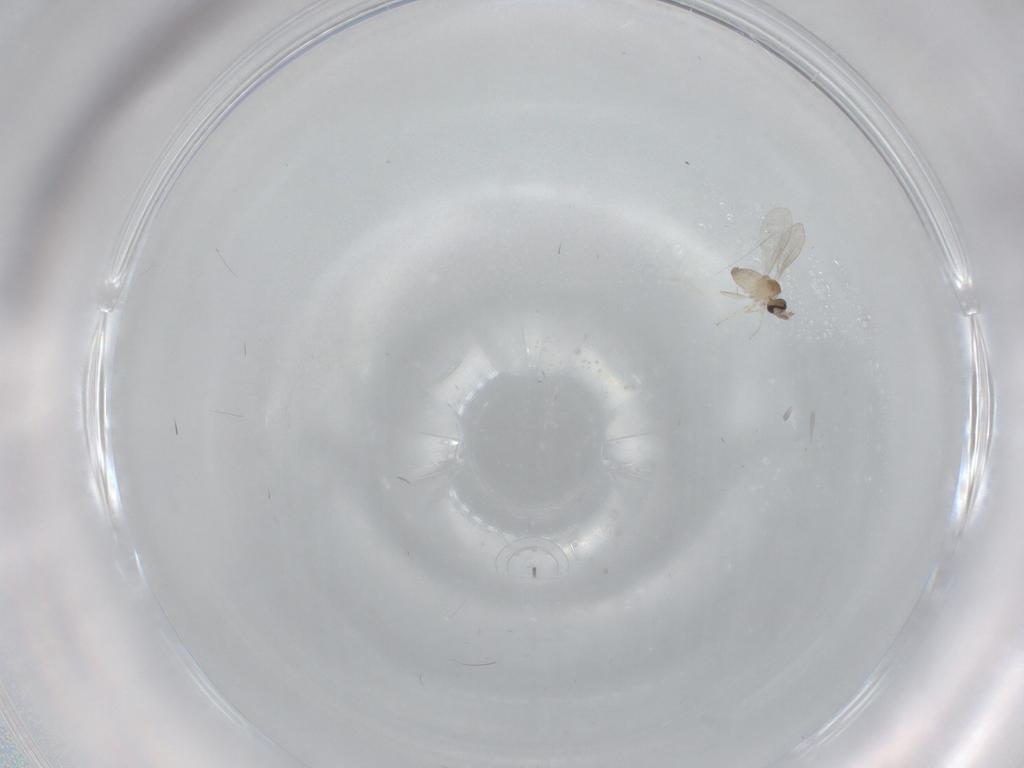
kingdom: Animalia
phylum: Arthropoda
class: Insecta
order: Diptera
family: Cecidomyiidae
